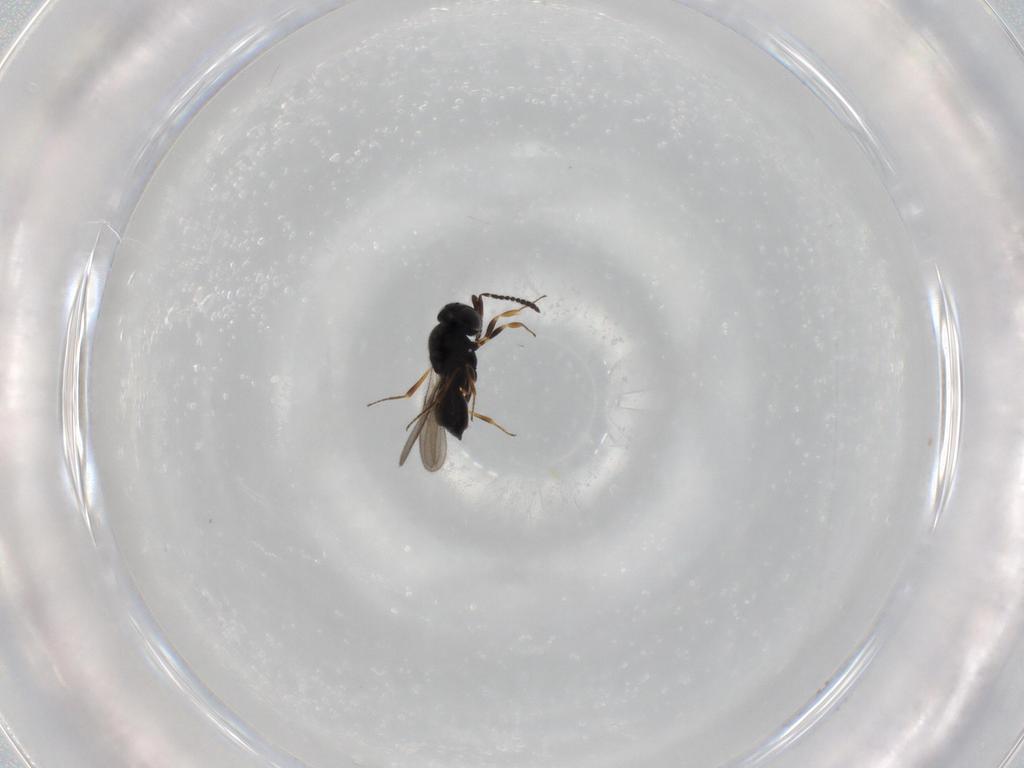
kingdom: Animalia
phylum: Arthropoda
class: Insecta
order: Hymenoptera
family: Scelionidae
